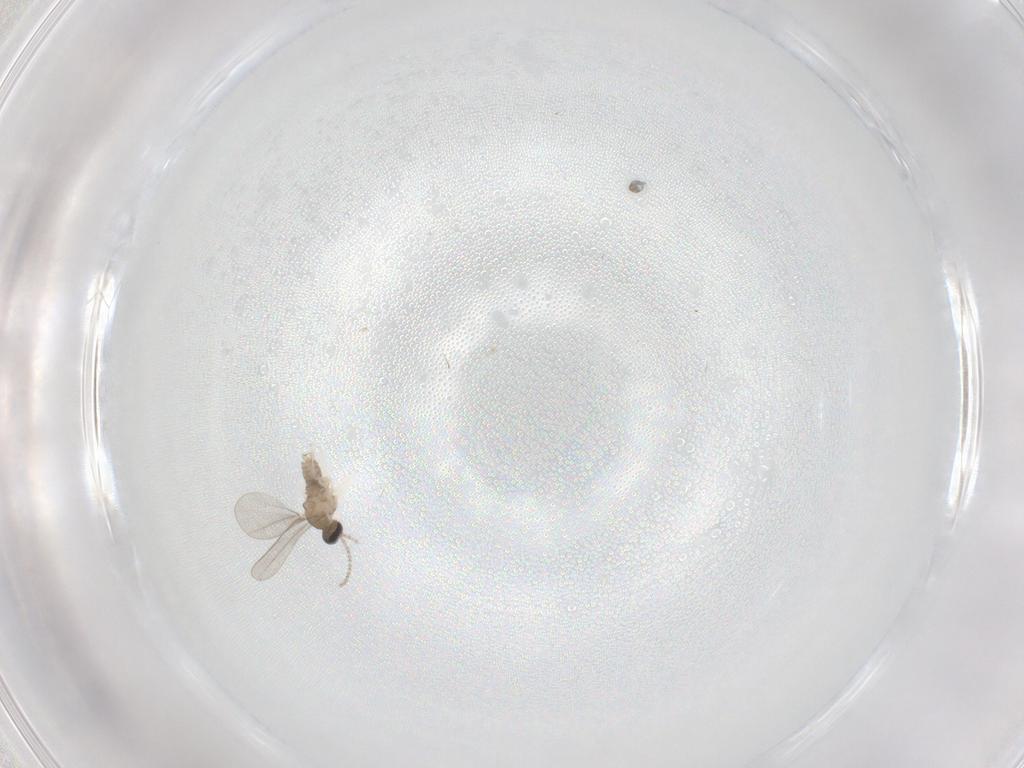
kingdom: Animalia
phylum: Arthropoda
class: Insecta
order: Diptera
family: Cecidomyiidae
